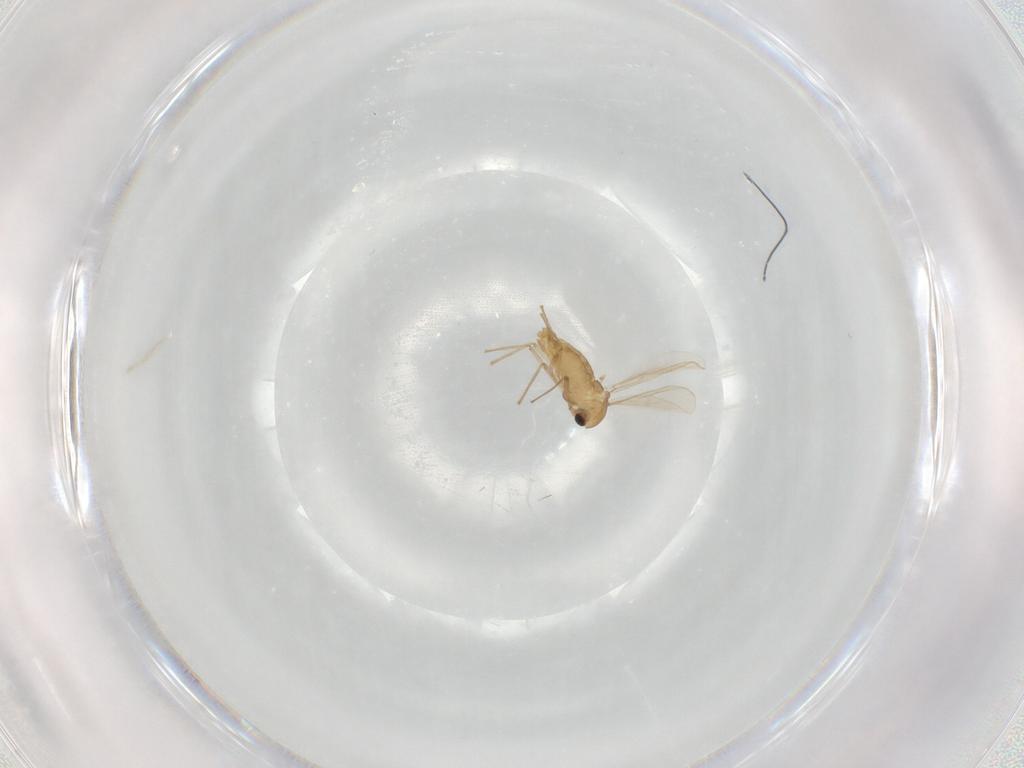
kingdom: Animalia
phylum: Arthropoda
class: Insecta
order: Diptera
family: Chironomidae
